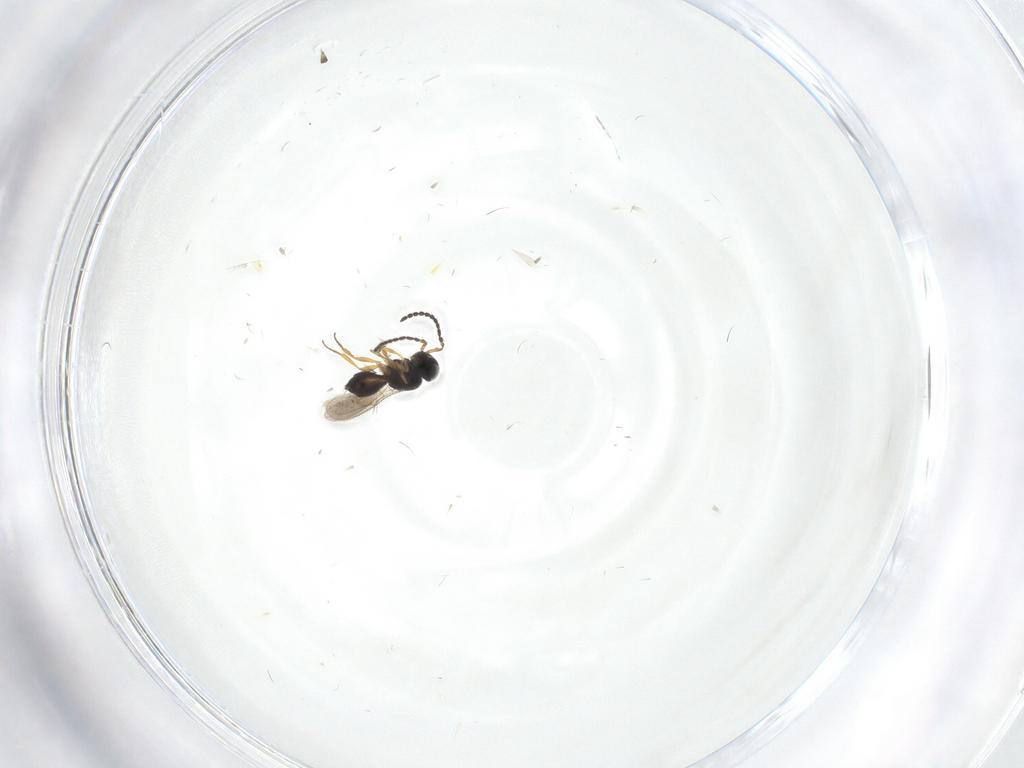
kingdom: Animalia
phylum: Arthropoda
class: Insecta
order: Hymenoptera
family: Scelionidae
